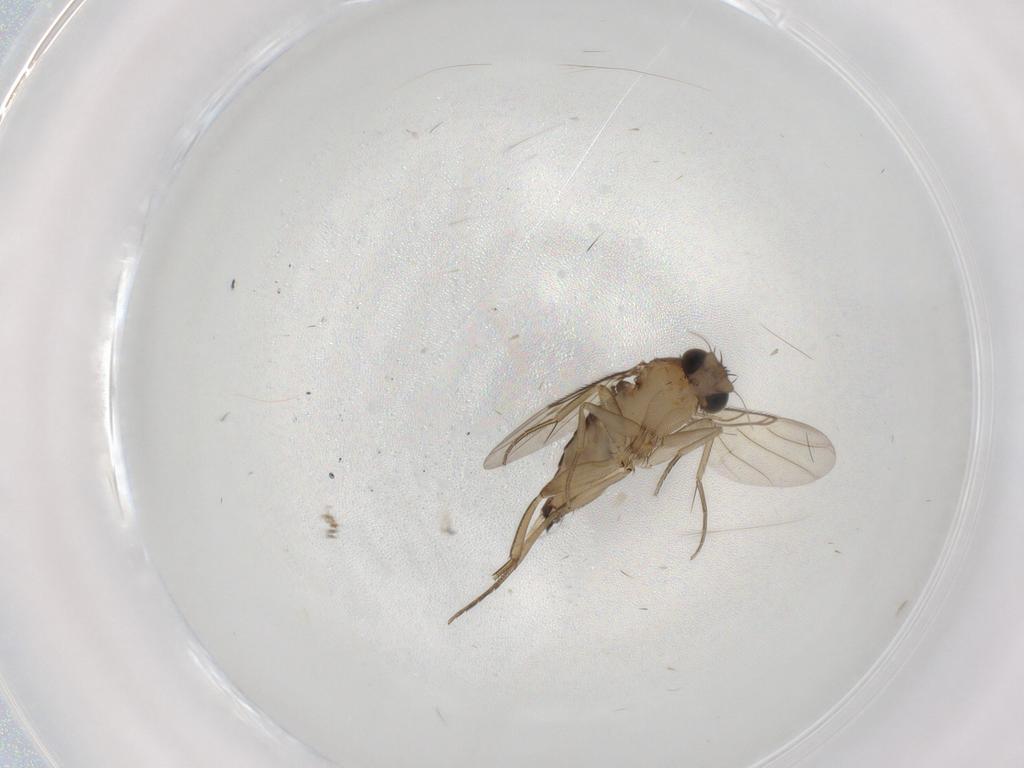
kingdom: Animalia
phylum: Arthropoda
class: Insecta
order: Diptera
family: Phoridae
